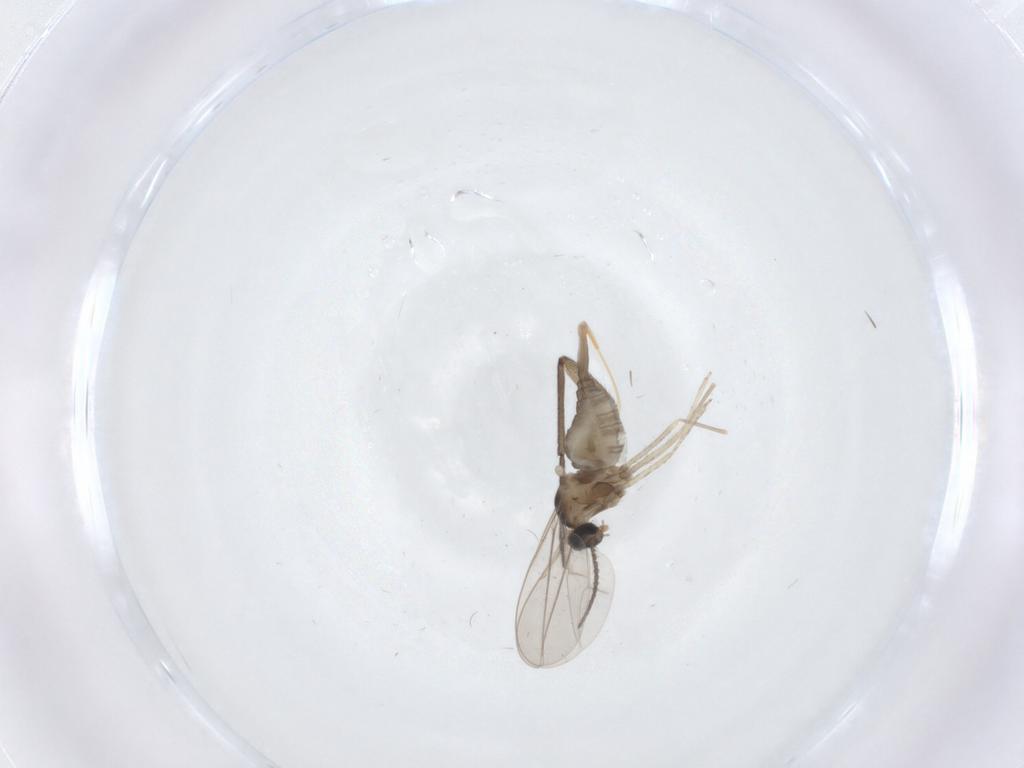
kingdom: Animalia
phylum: Arthropoda
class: Insecta
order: Diptera
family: Cecidomyiidae
